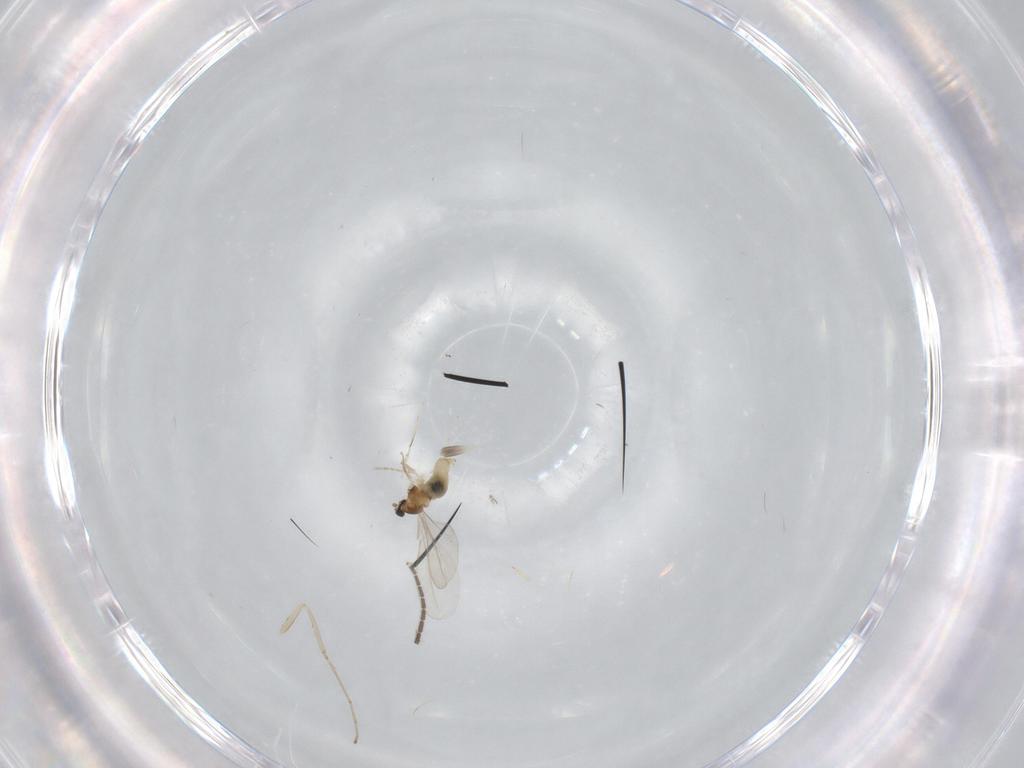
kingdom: Animalia
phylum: Arthropoda
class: Insecta
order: Diptera
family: Cecidomyiidae
